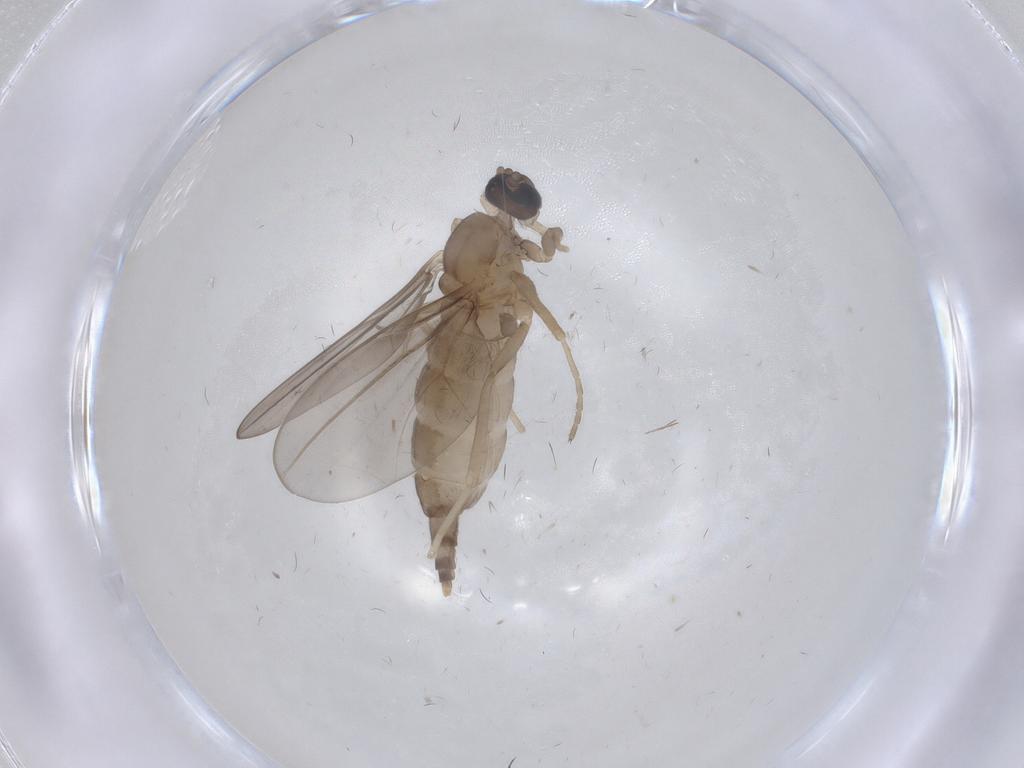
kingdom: Animalia
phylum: Arthropoda
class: Insecta
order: Diptera
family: Cecidomyiidae
